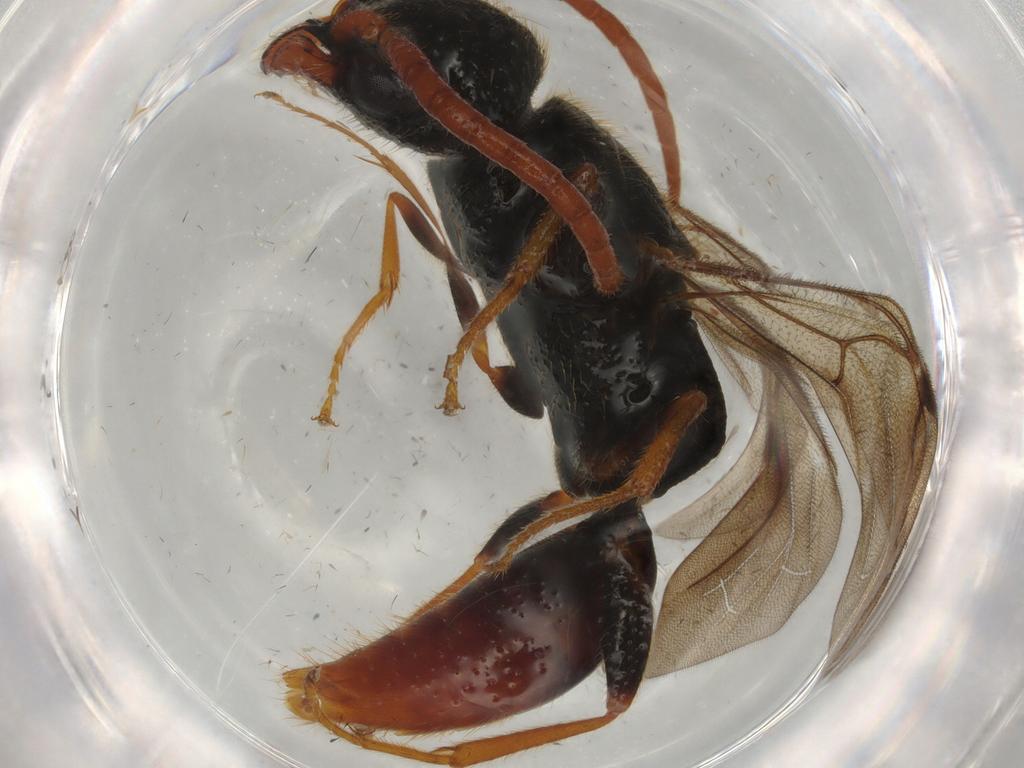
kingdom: Animalia
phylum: Arthropoda
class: Insecta
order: Hymenoptera
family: Bethylidae
